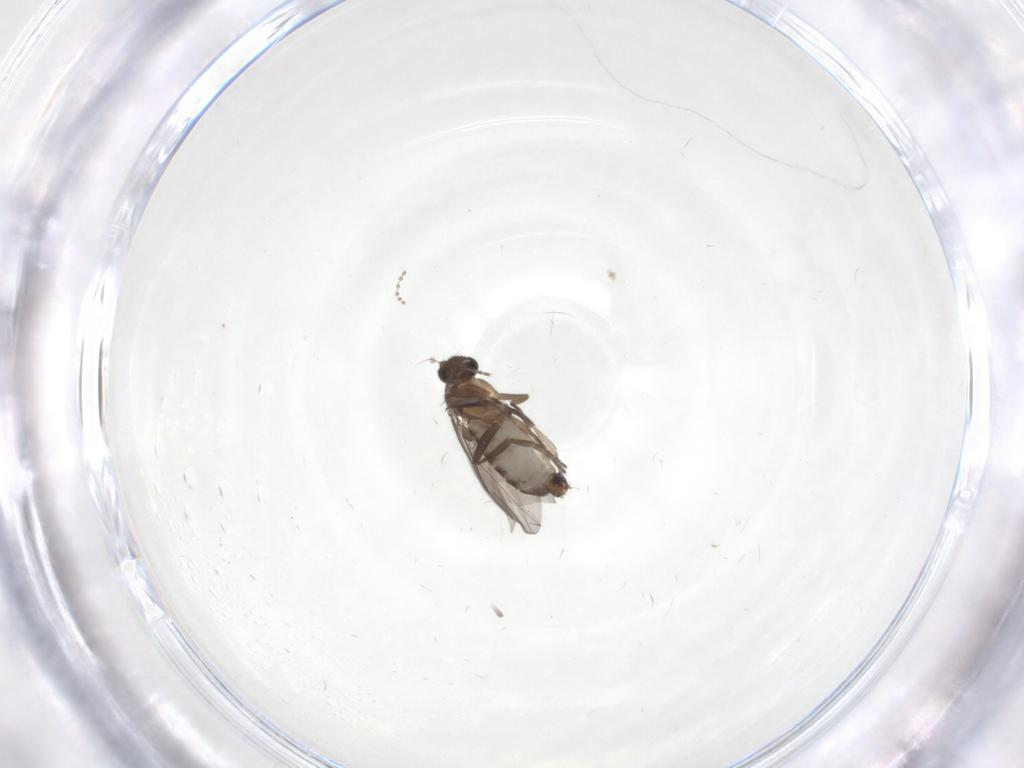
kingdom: Animalia
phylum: Arthropoda
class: Insecta
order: Diptera
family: Phoridae
